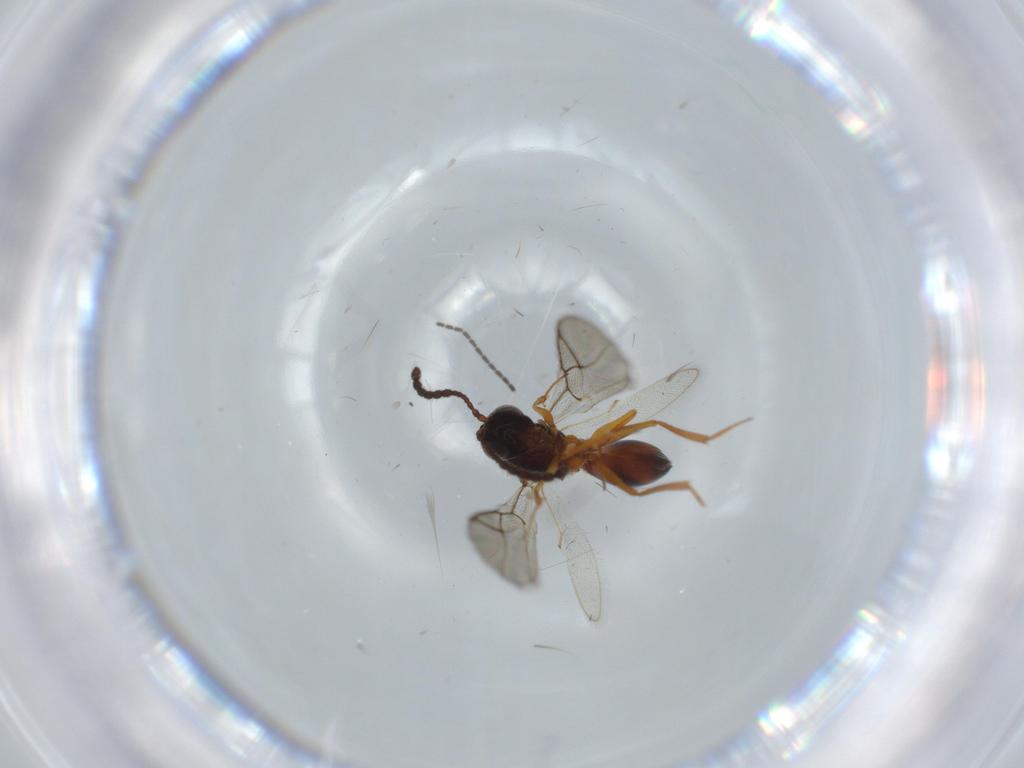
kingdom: Animalia
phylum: Arthropoda
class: Insecta
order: Hymenoptera
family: Figitidae
